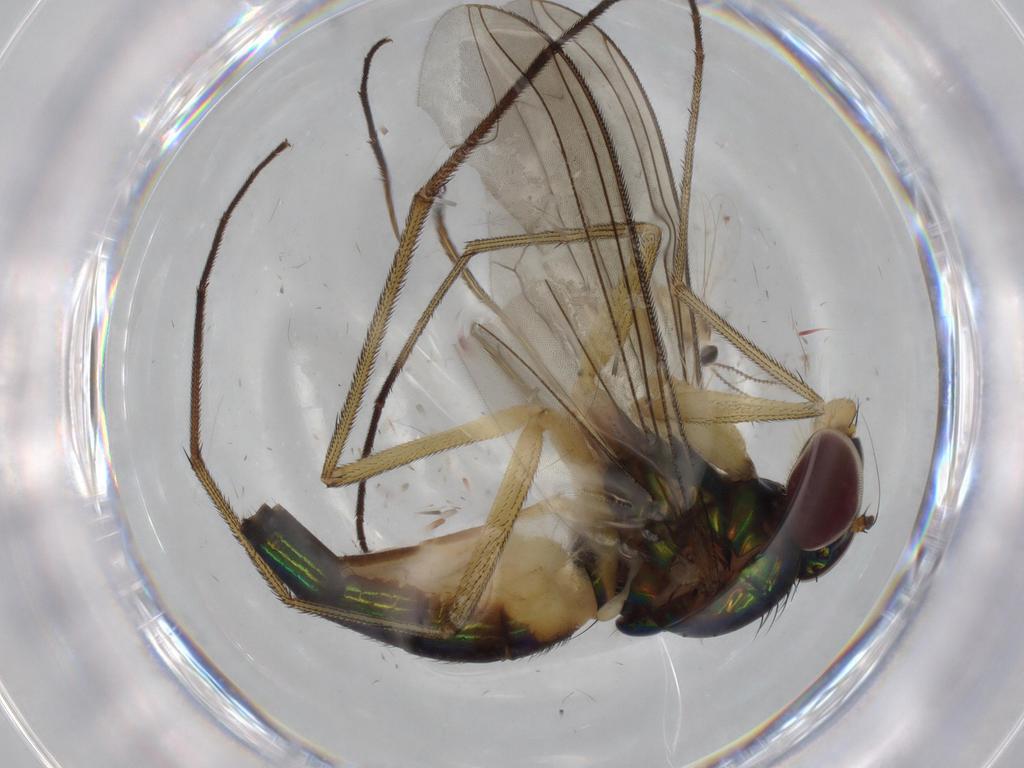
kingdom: Animalia
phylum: Arthropoda
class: Insecta
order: Diptera
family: Dolichopodidae
